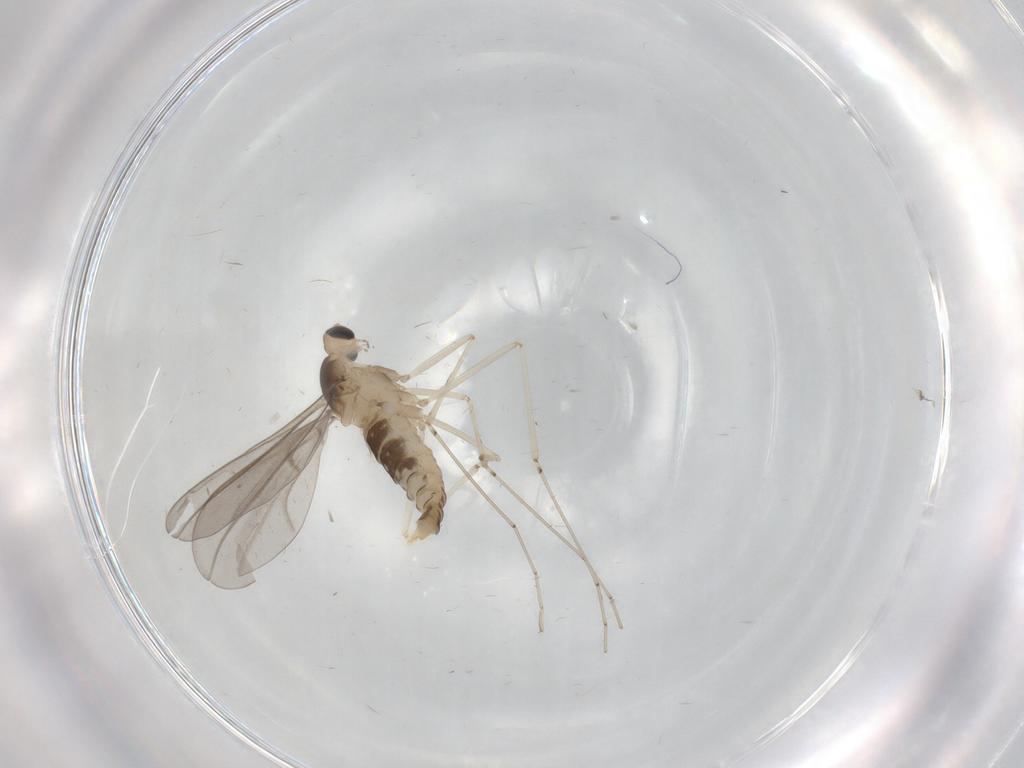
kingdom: Animalia
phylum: Arthropoda
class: Insecta
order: Diptera
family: Cecidomyiidae
